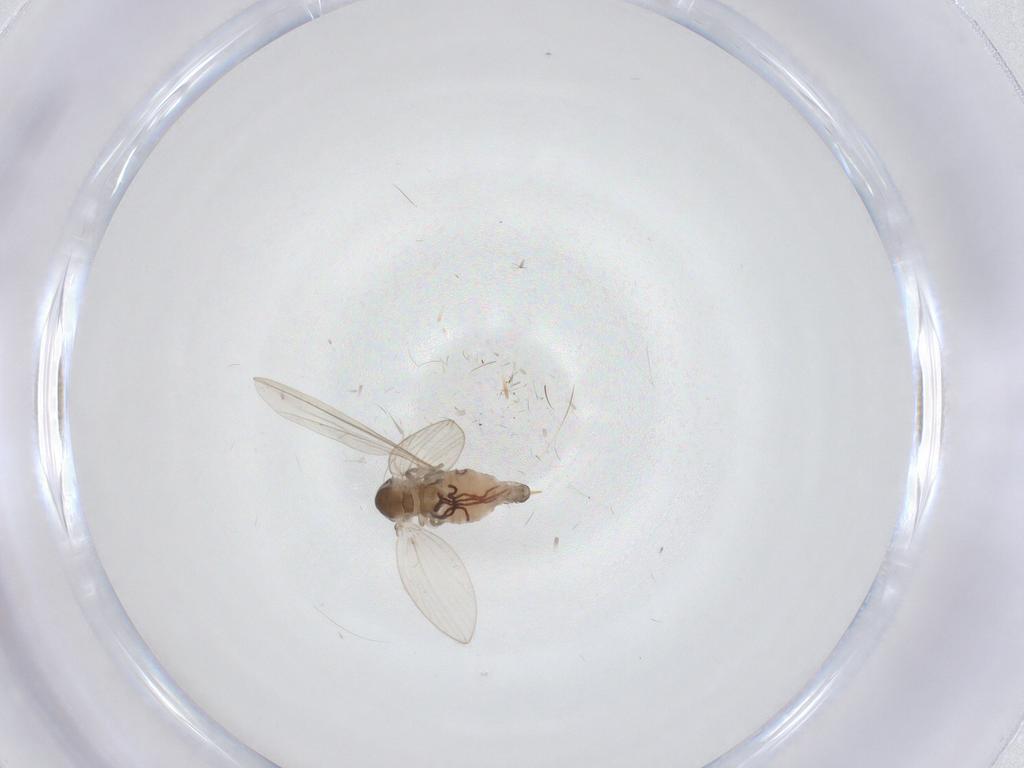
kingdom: Animalia
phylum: Arthropoda
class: Insecta
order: Diptera
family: Psychodidae
